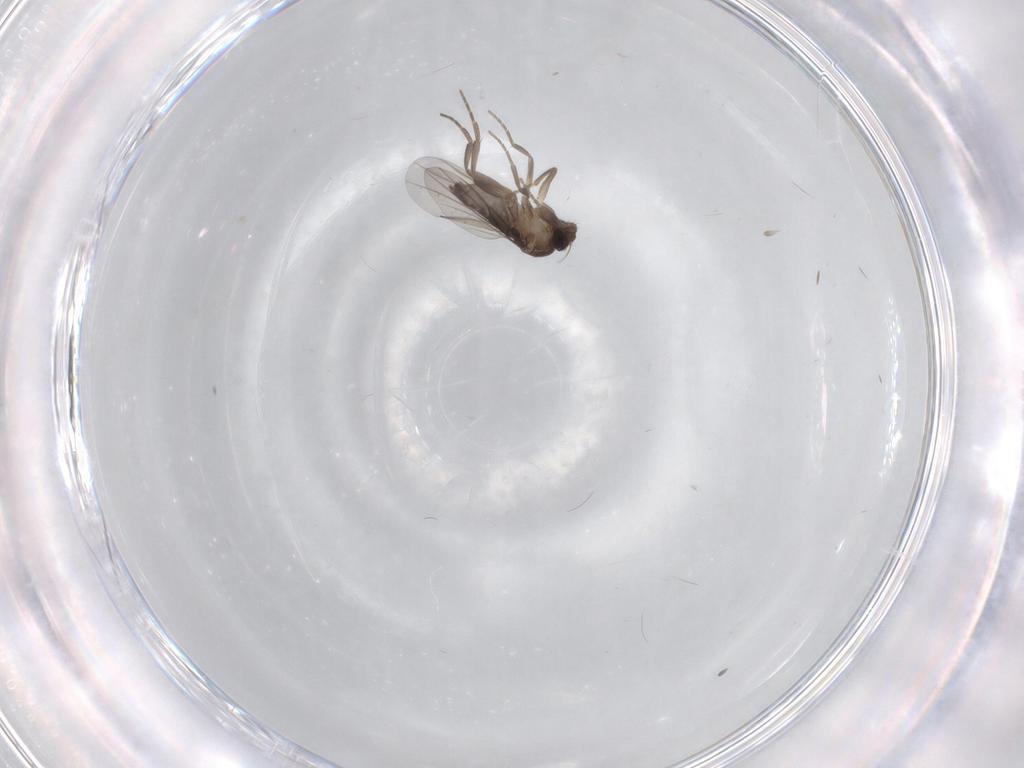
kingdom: Animalia
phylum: Arthropoda
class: Insecta
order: Diptera
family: Phoridae
